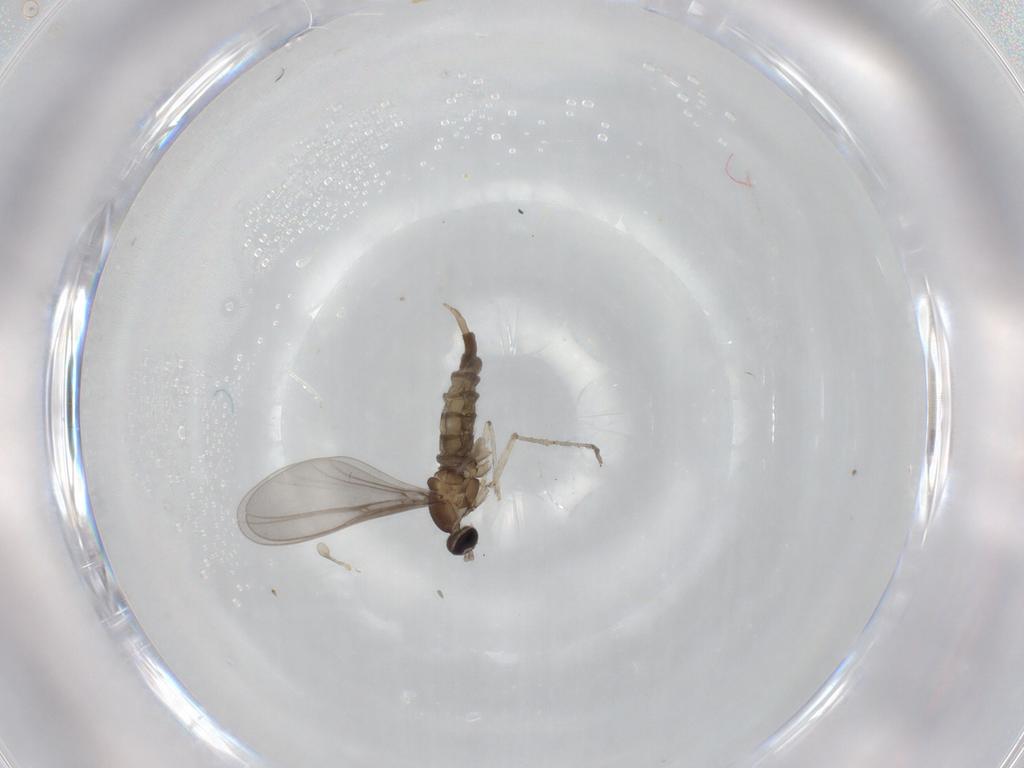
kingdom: Animalia
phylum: Arthropoda
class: Insecta
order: Diptera
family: Cecidomyiidae
